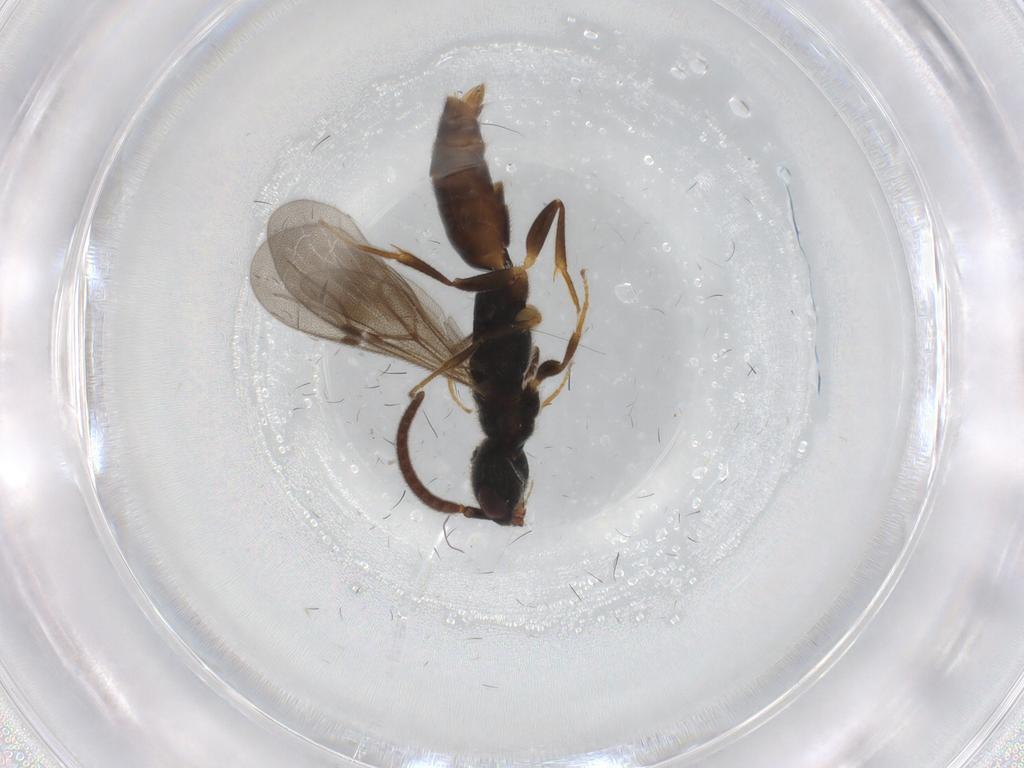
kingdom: Animalia
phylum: Arthropoda
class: Insecta
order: Hymenoptera
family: Bethylidae
